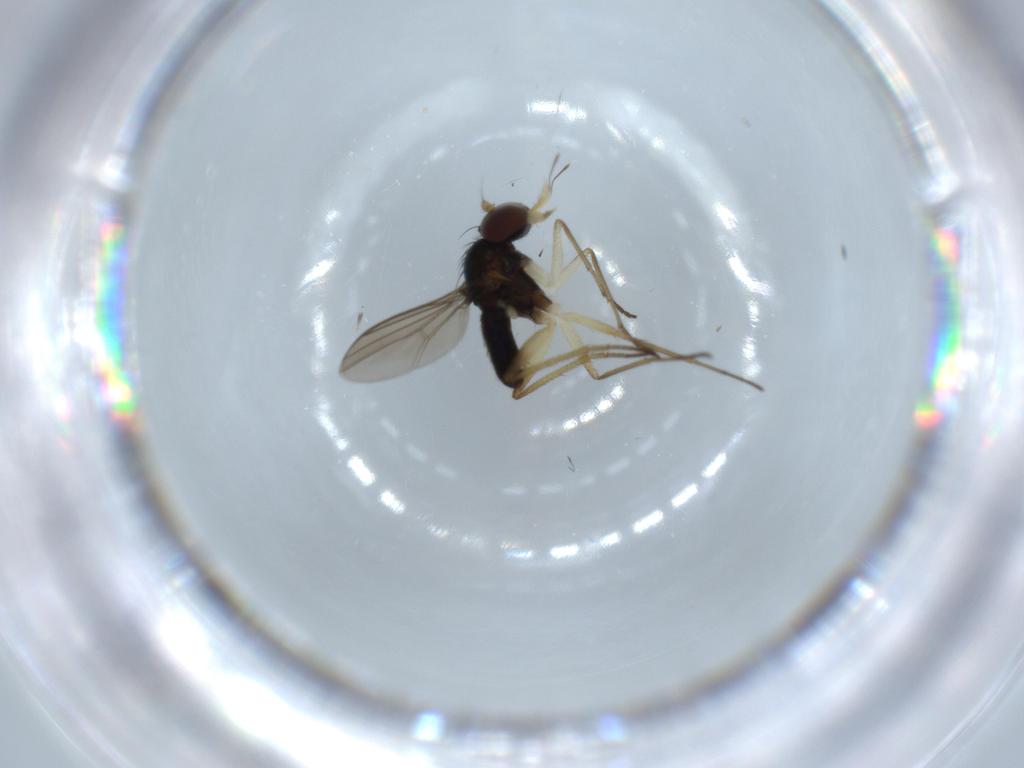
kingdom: Animalia
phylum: Arthropoda
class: Insecta
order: Diptera
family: Dolichopodidae
